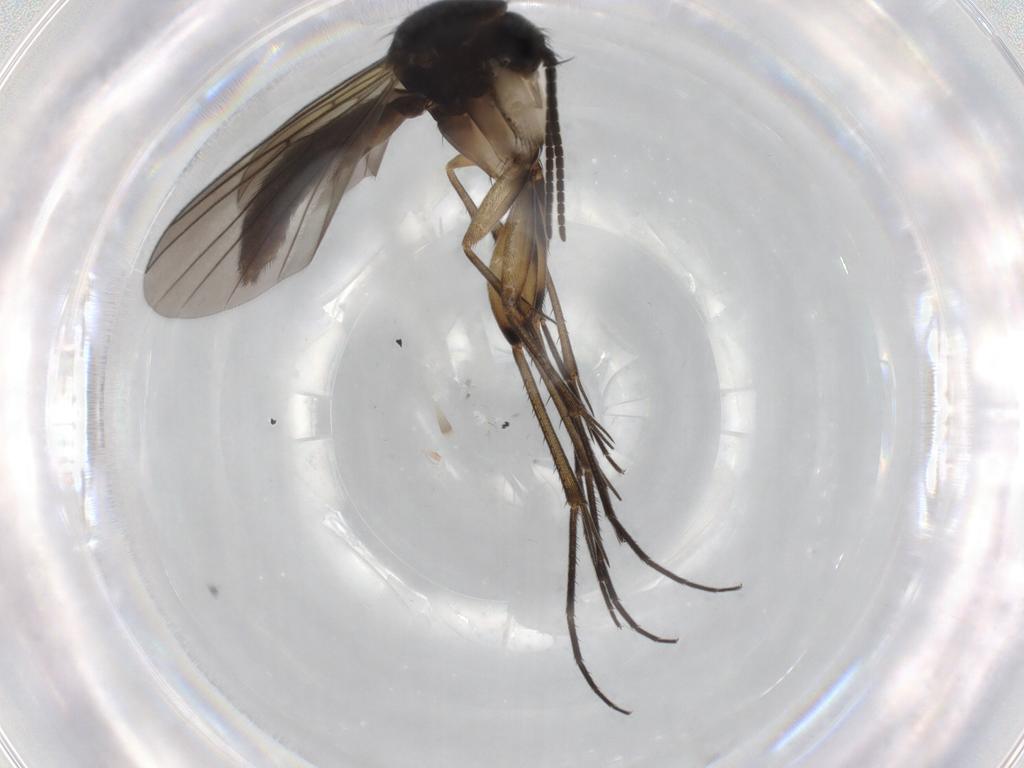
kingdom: Animalia
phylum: Arthropoda
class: Insecta
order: Diptera
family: Mycetophilidae
